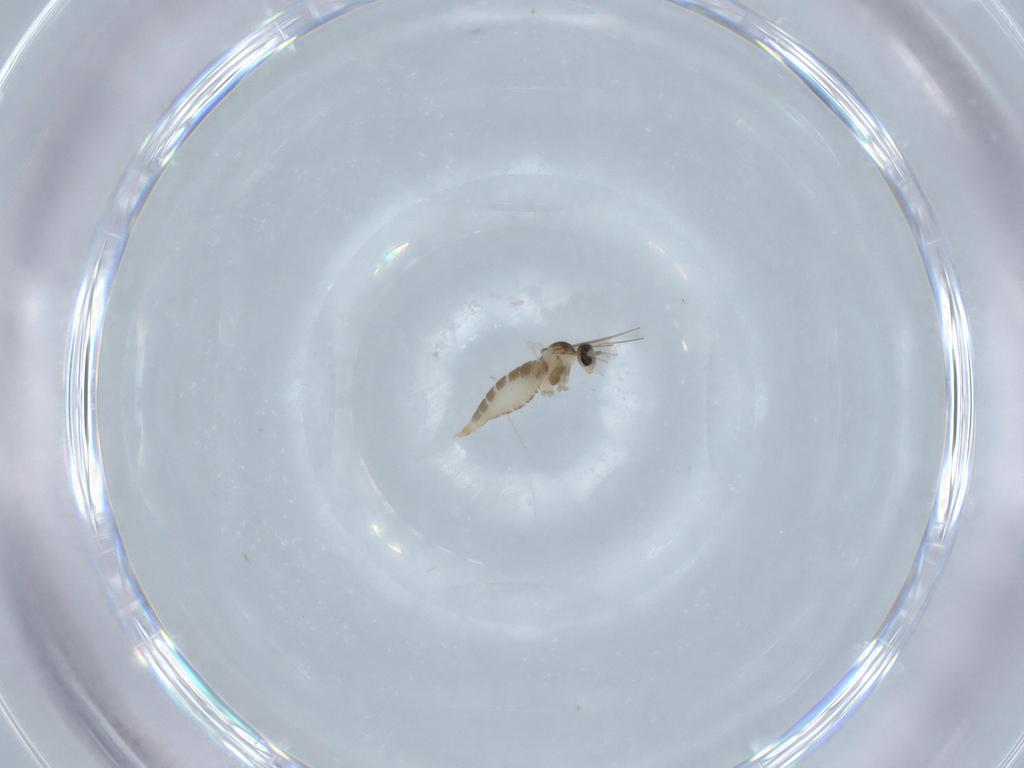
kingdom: Animalia
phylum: Arthropoda
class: Insecta
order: Diptera
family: Cecidomyiidae
